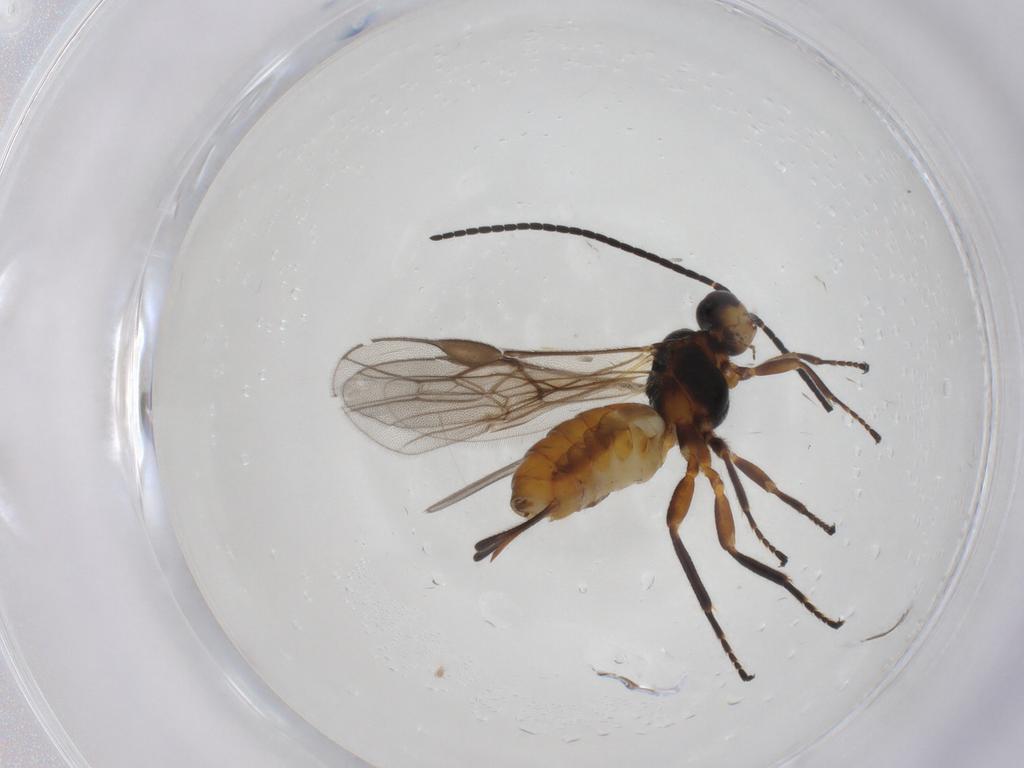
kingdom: Animalia
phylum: Arthropoda
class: Insecta
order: Hymenoptera
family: Braconidae
